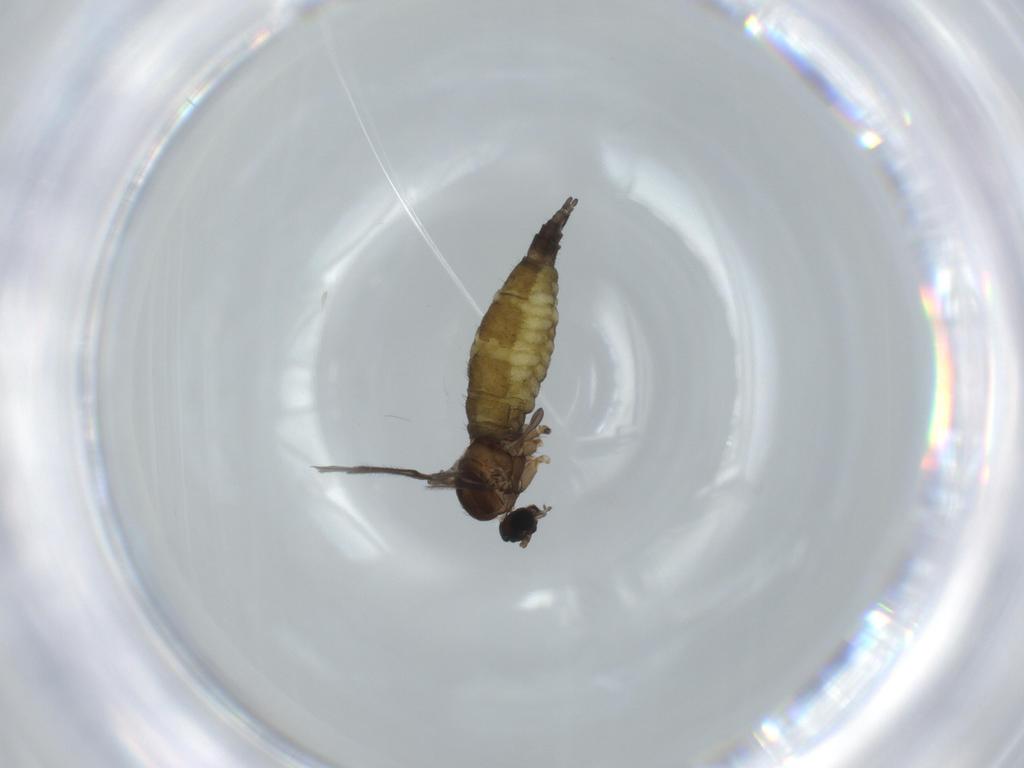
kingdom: Animalia
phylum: Arthropoda
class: Insecta
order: Diptera
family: Sciaridae
